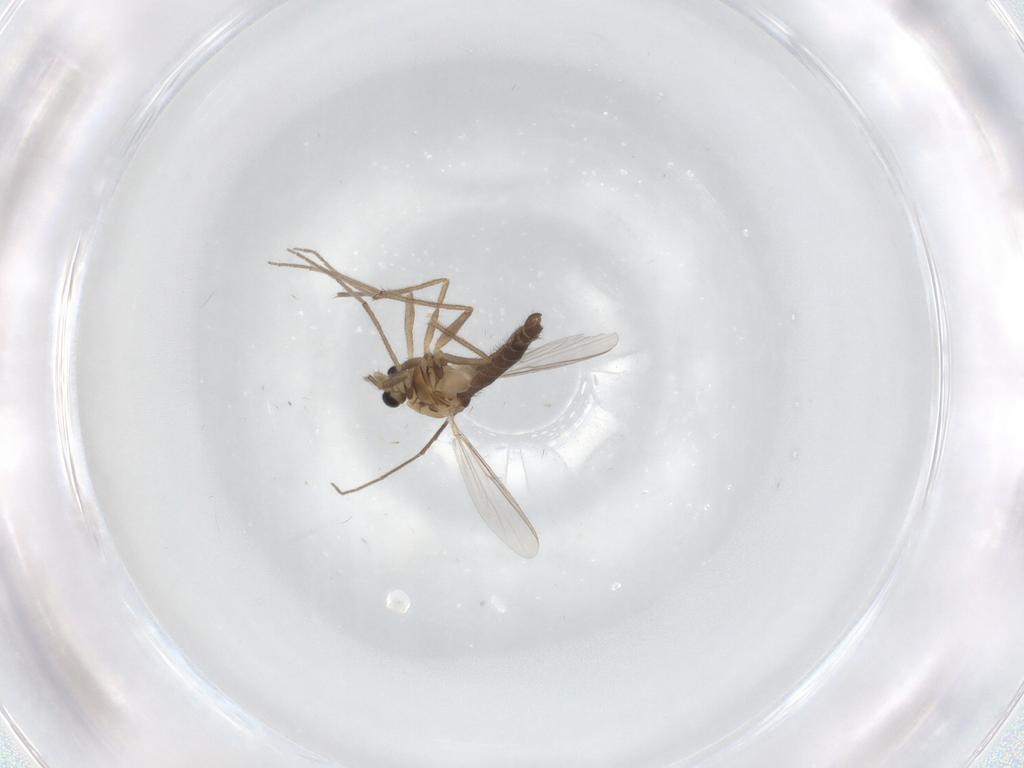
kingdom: Animalia
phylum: Arthropoda
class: Insecta
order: Diptera
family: Chironomidae
